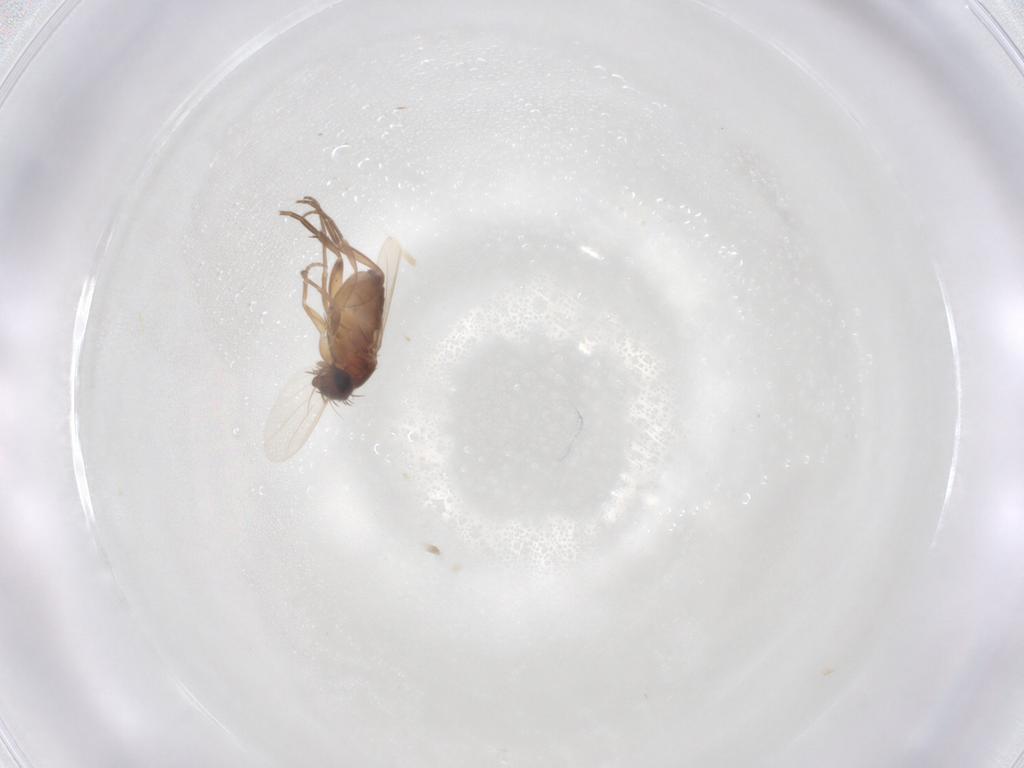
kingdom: Animalia
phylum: Arthropoda
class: Insecta
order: Diptera
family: Phoridae
